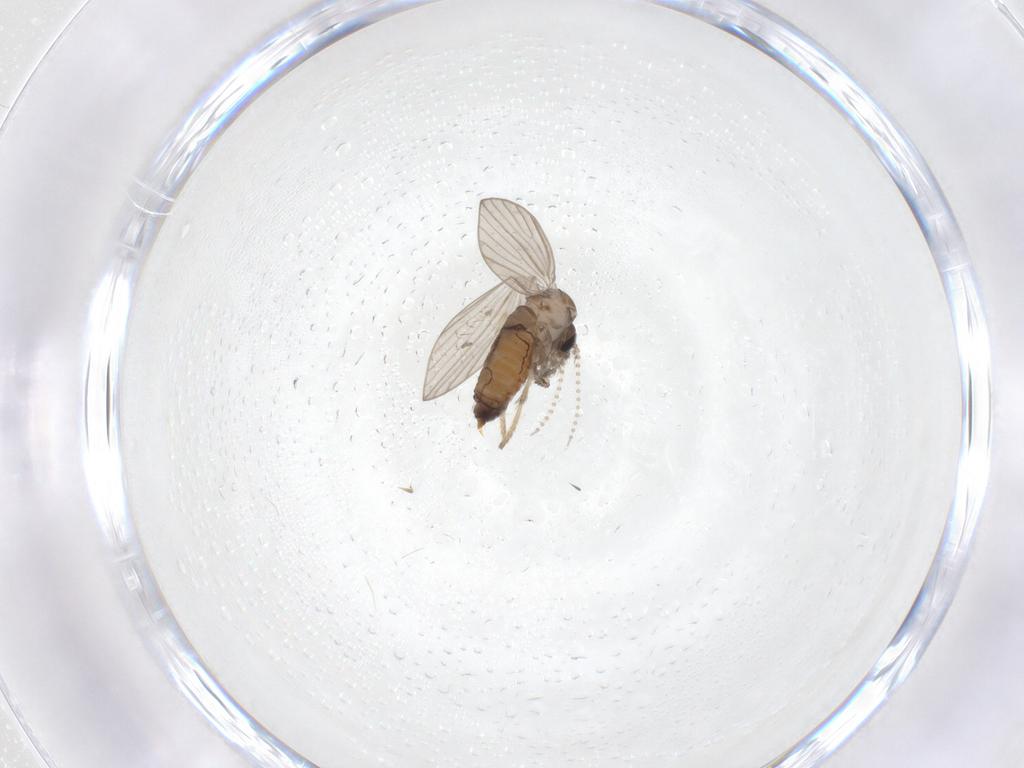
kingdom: Animalia
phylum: Arthropoda
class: Insecta
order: Diptera
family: Psychodidae
